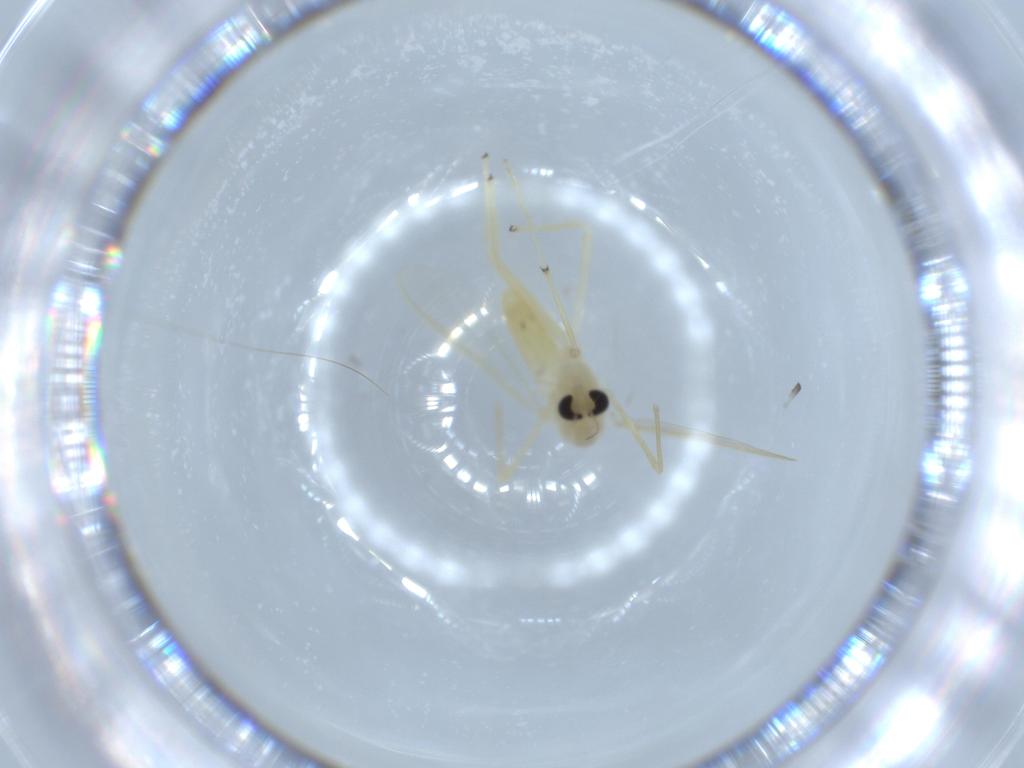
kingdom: Animalia
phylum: Arthropoda
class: Insecta
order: Diptera
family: Chironomidae
